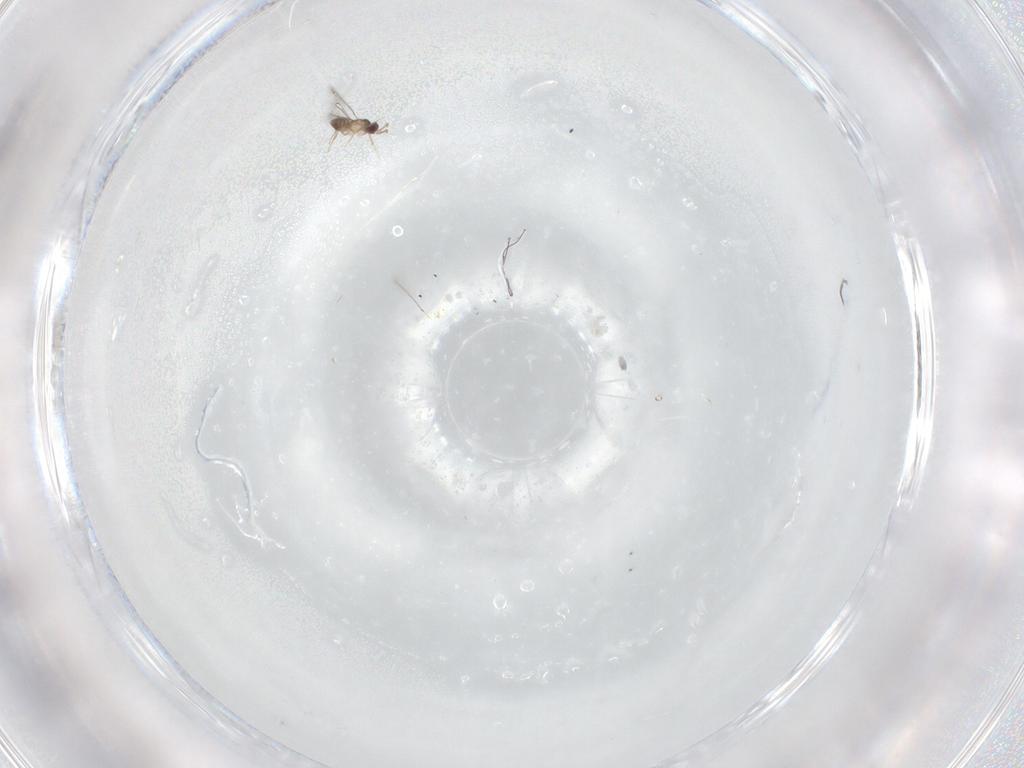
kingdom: Animalia
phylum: Arthropoda
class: Insecta
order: Hymenoptera
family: Mymaridae
